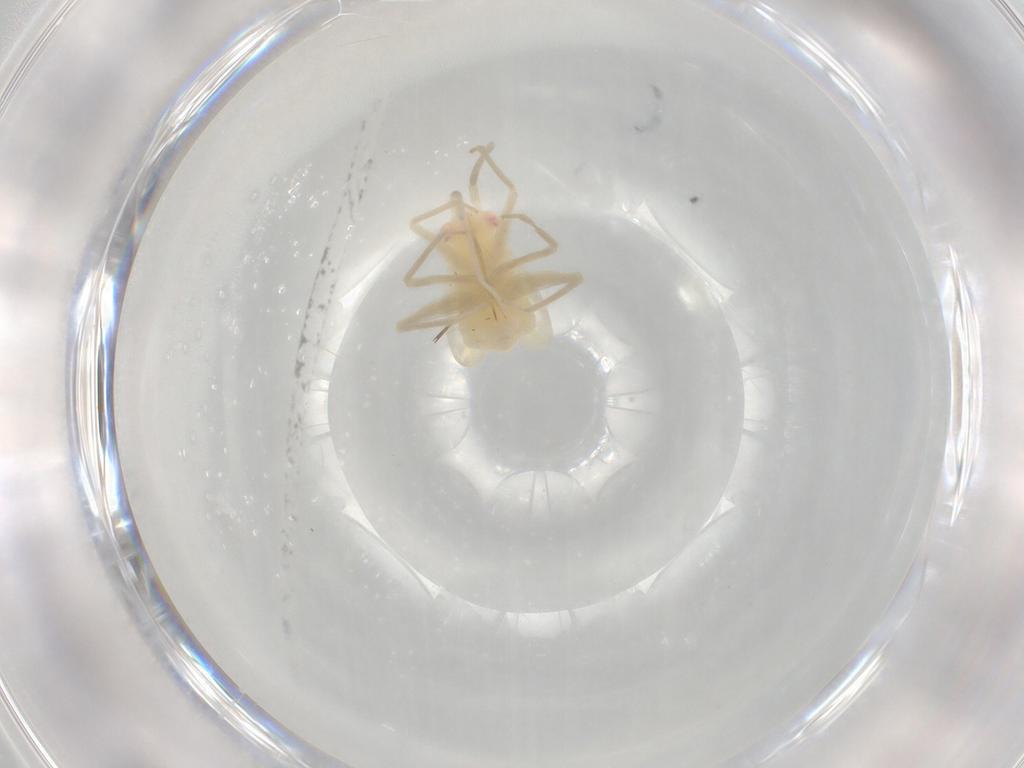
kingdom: Animalia
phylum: Arthropoda
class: Insecta
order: Hemiptera
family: Miridae
